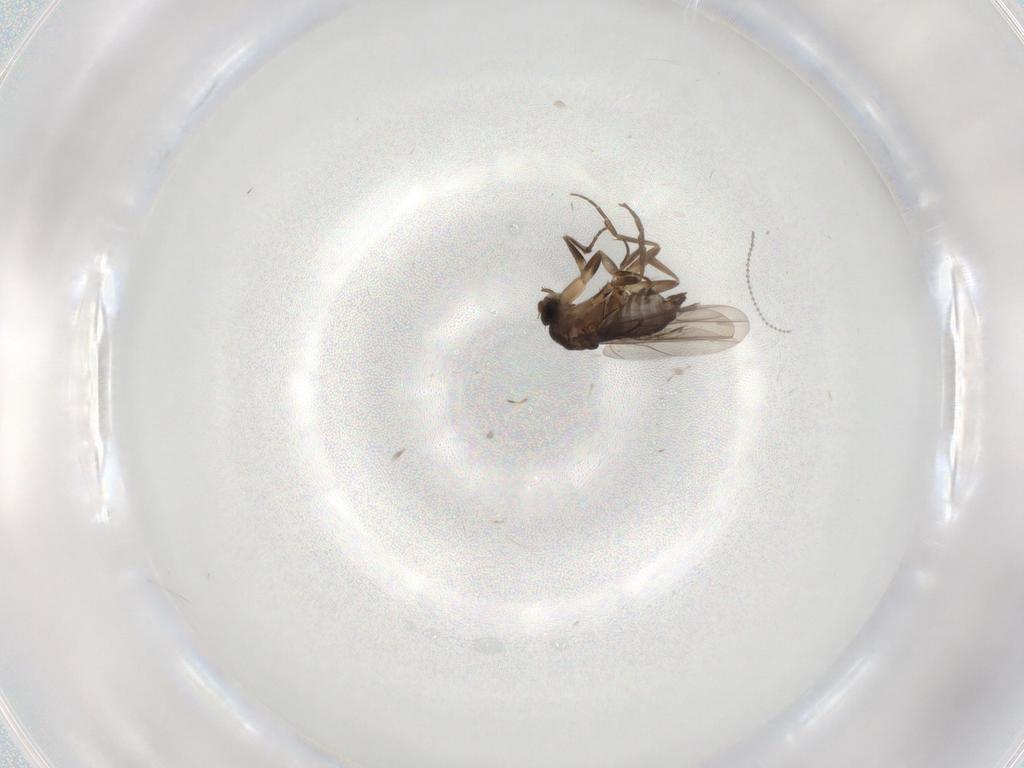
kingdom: Animalia
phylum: Arthropoda
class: Insecta
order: Diptera
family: Phoridae
